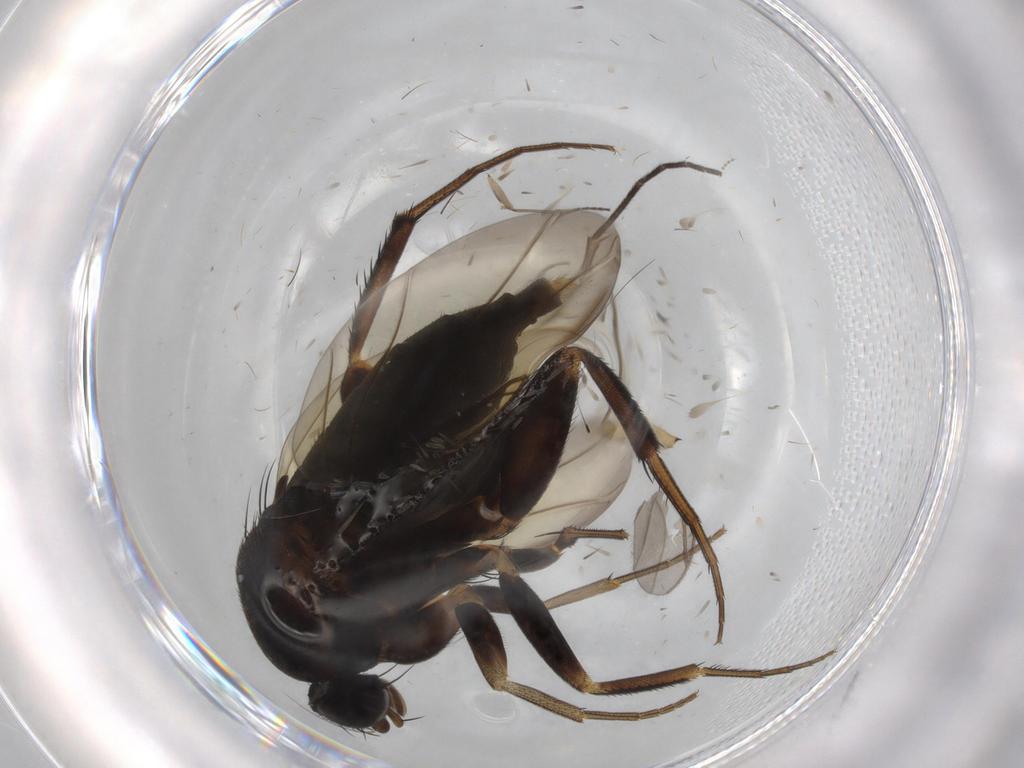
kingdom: Animalia
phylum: Arthropoda
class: Insecta
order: Diptera
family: Phoridae
